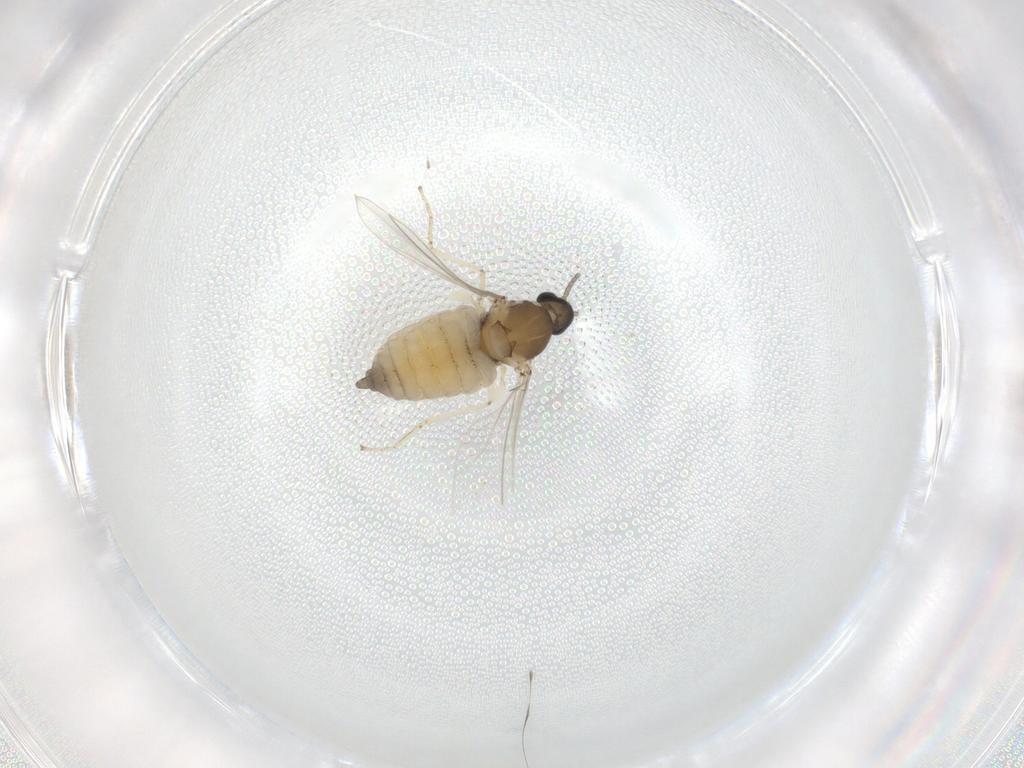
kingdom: Animalia
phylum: Arthropoda
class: Insecta
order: Diptera
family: Cecidomyiidae
